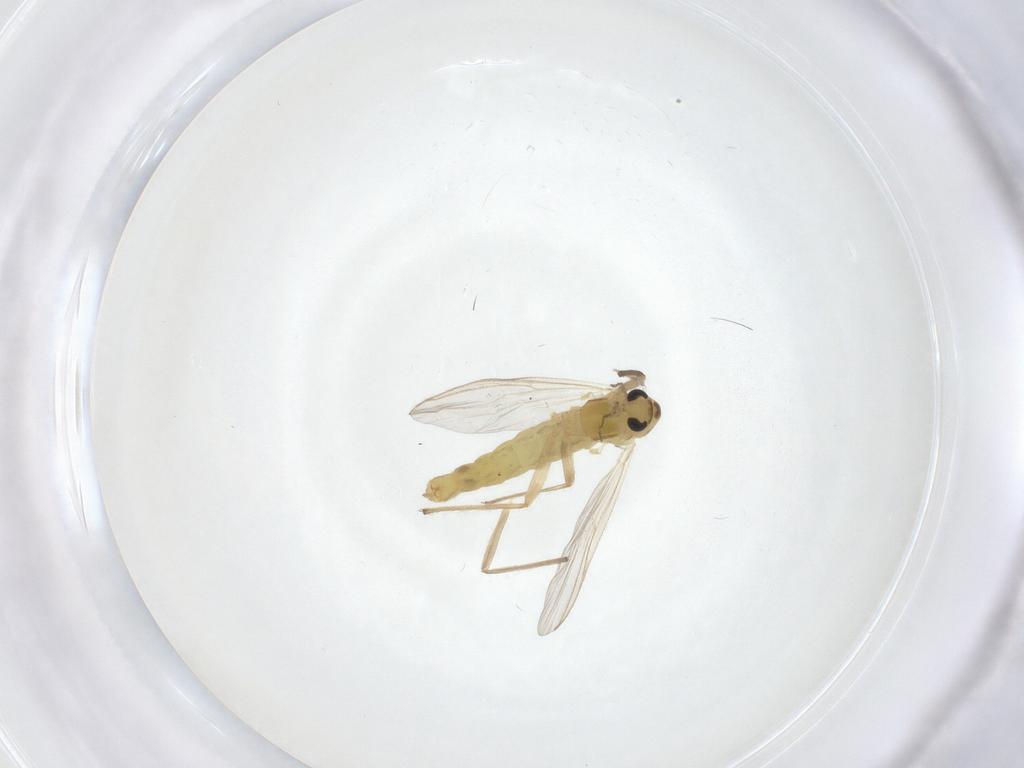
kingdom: Animalia
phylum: Arthropoda
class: Insecta
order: Diptera
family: Chironomidae
